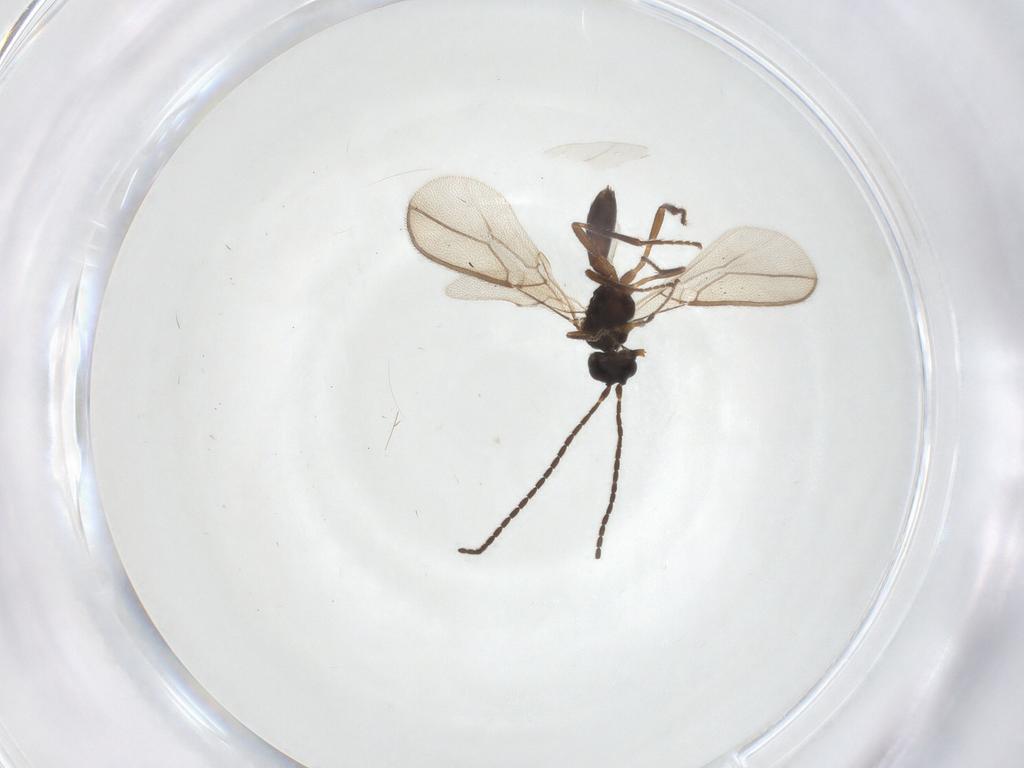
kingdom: Animalia
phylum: Arthropoda
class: Insecta
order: Hymenoptera
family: Braconidae
